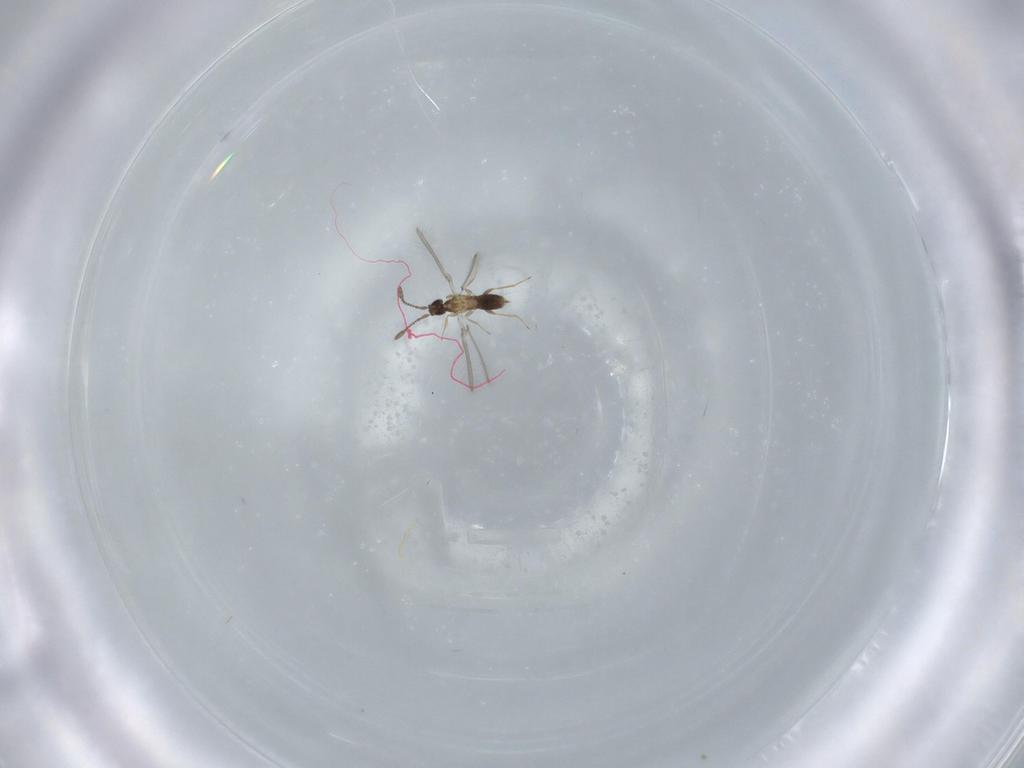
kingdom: Animalia
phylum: Arthropoda
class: Insecta
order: Hymenoptera
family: Mymaridae
